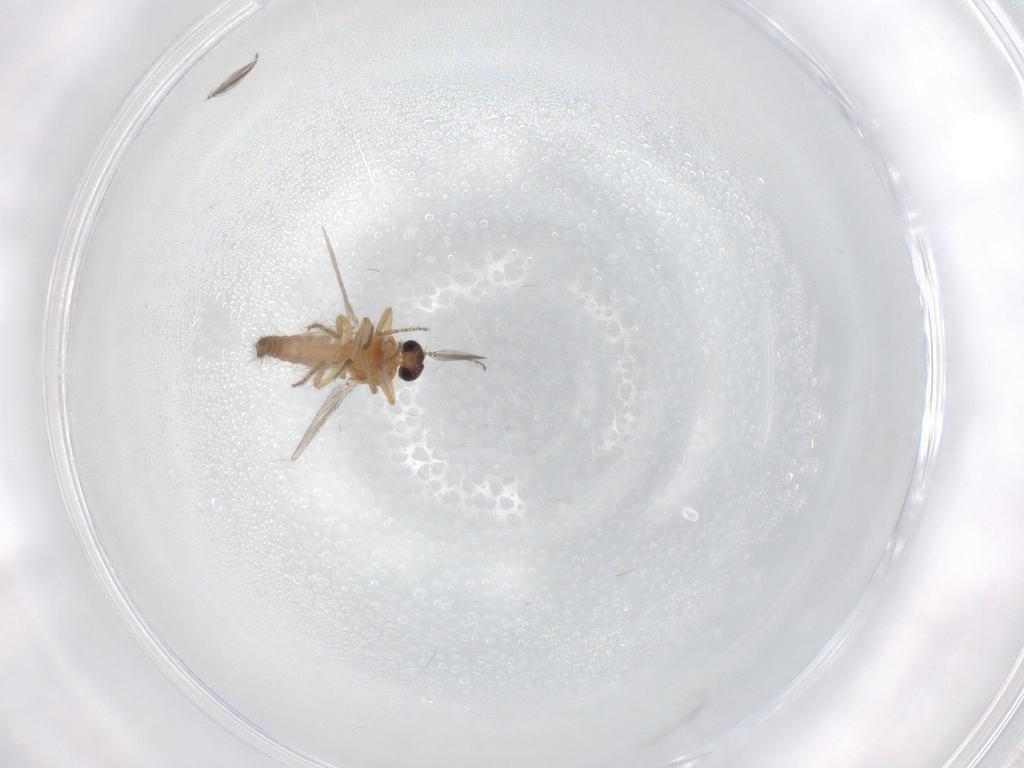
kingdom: Animalia
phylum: Arthropoda
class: Insecta
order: Diptera
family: Ceratopogonidae
